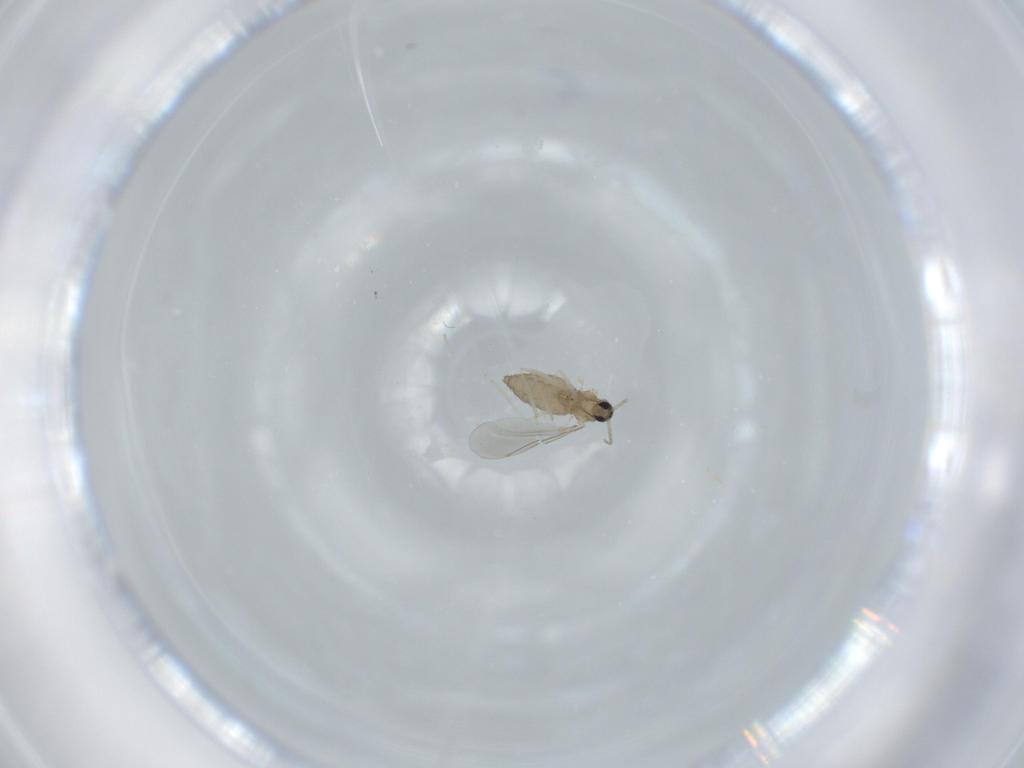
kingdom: Animalia
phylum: Arthropoda
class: Insecta
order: Diptera
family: Cecidomyiidae
